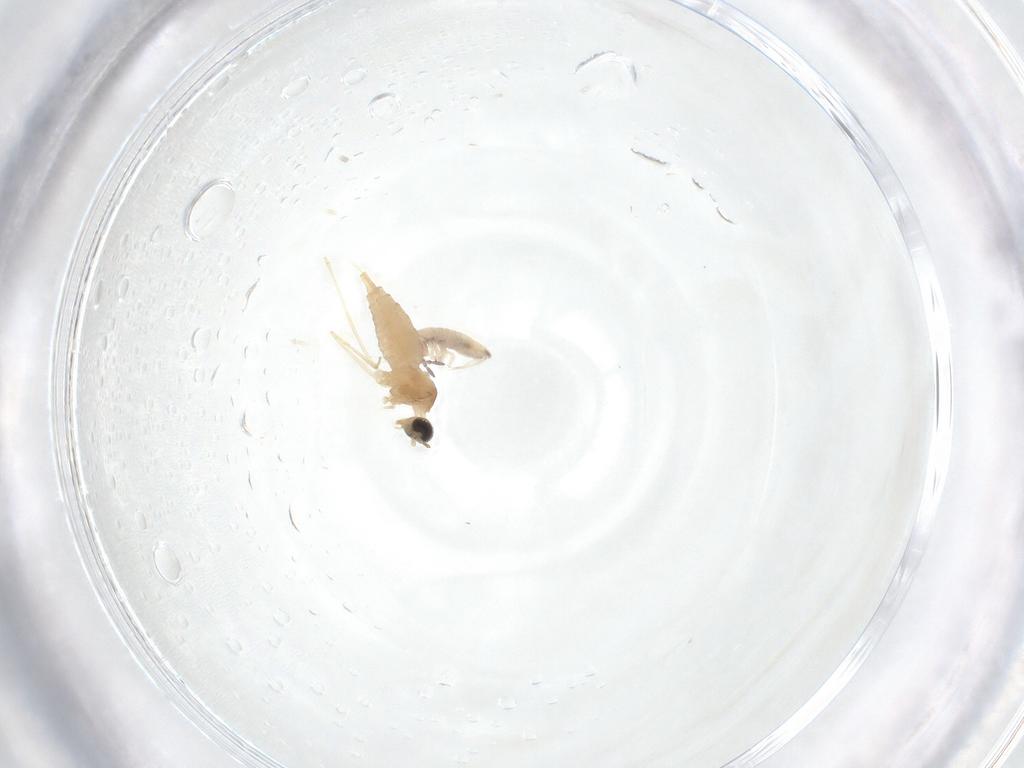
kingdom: Animalia
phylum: Arthropoda
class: Insecta
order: Diptera
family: Cecidomyiidae
